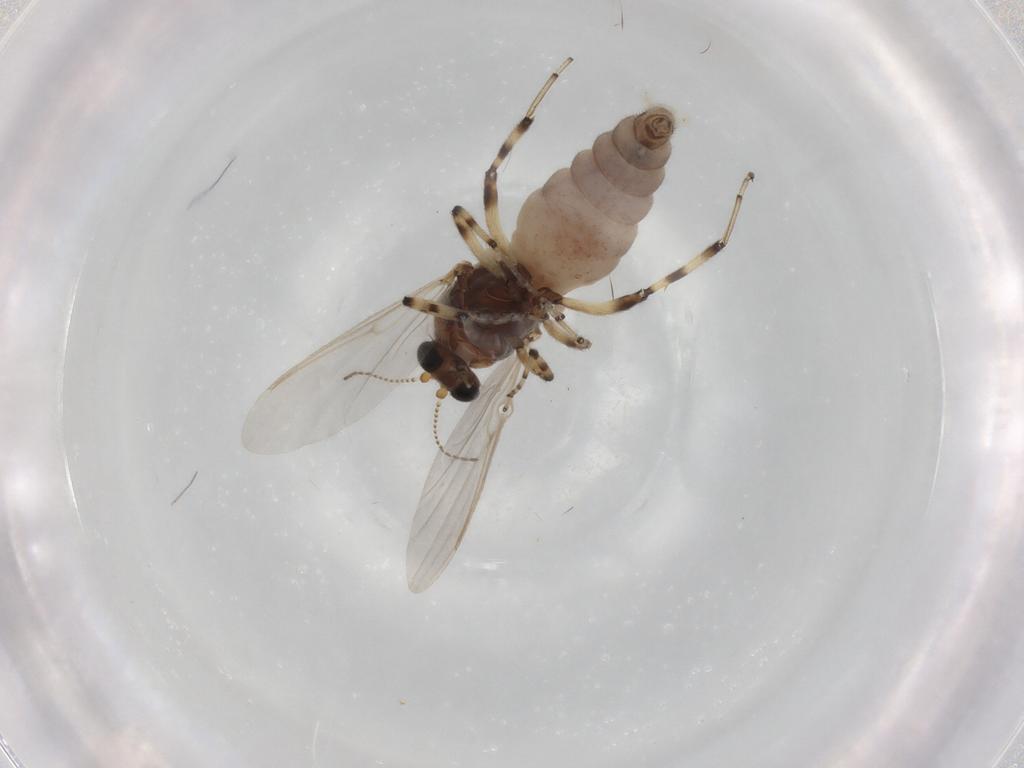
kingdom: Animalia
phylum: Arthropoda
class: Insecta
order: Diptera
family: Ceratopogonidae
